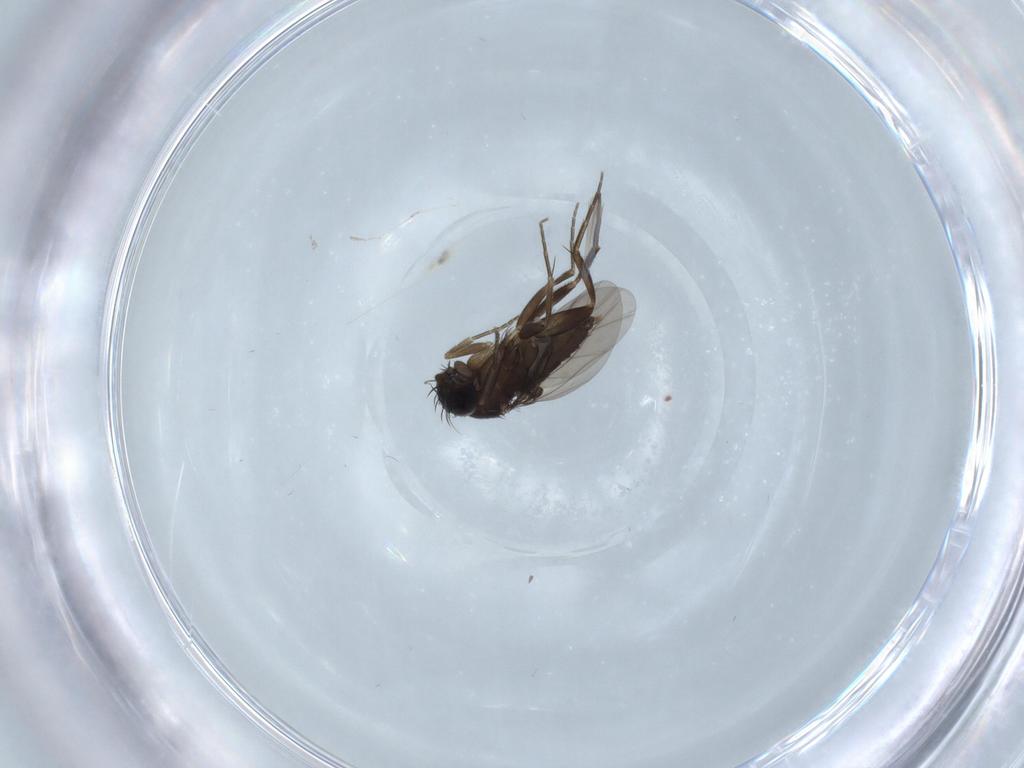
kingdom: Animalia
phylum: Arthropoda
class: Insecta
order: Diptera
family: Phoridae
